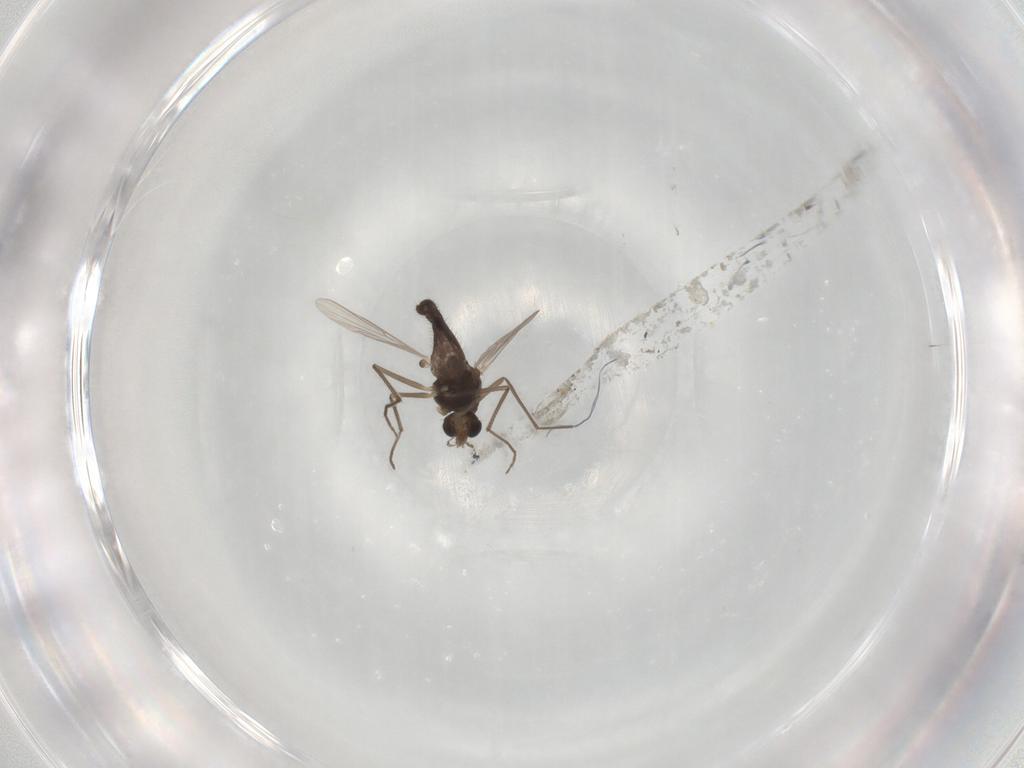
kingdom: Animalia
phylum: Arthropoda
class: Insecta
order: Diptera
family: Chironomidae
